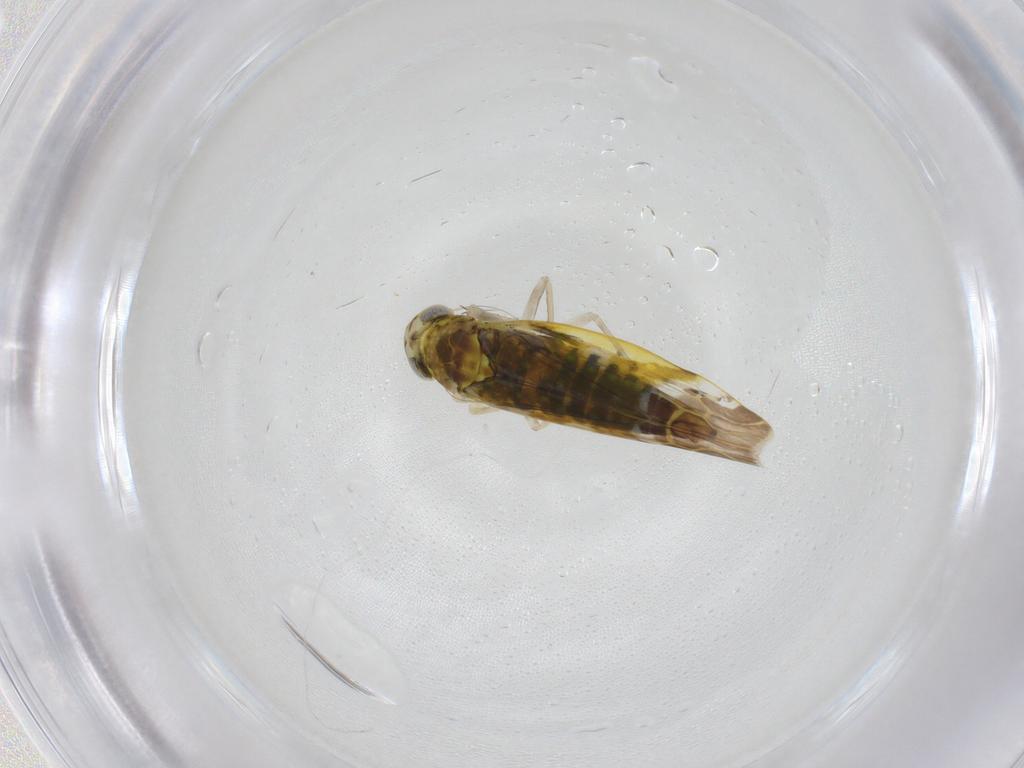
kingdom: Animalia
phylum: Arthropoda
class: Insecta
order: Hemiptera
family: Cicadellidae
